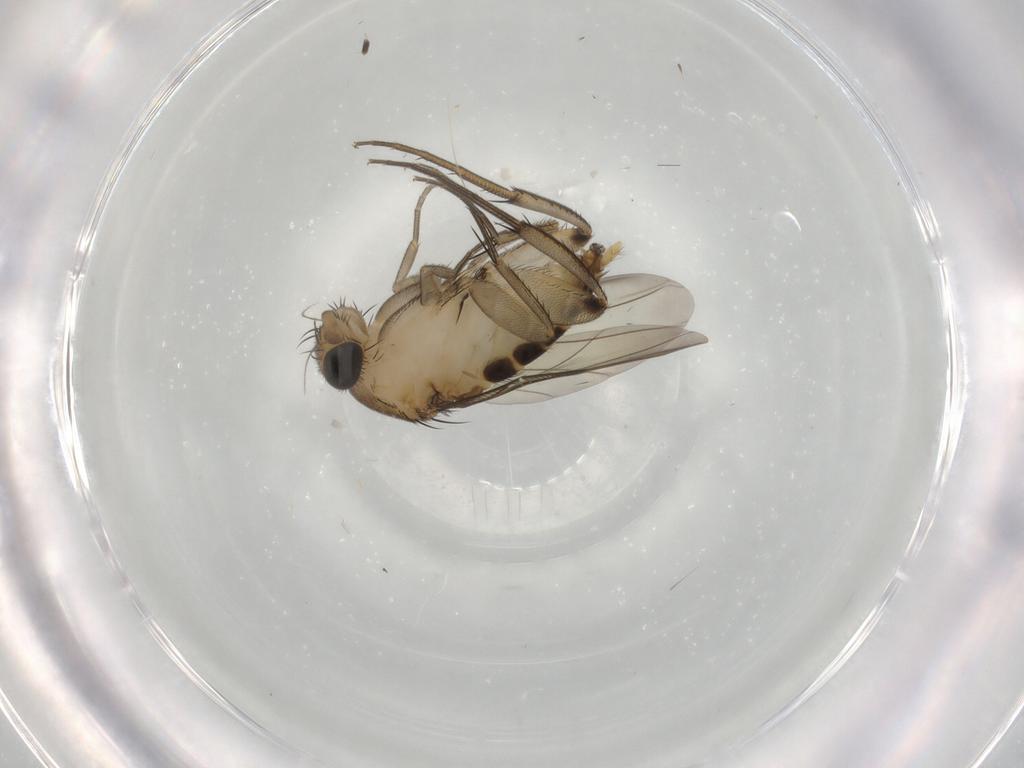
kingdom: Animalia
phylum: Arthropoda
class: Insecta
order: Diptera
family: Phoridae
